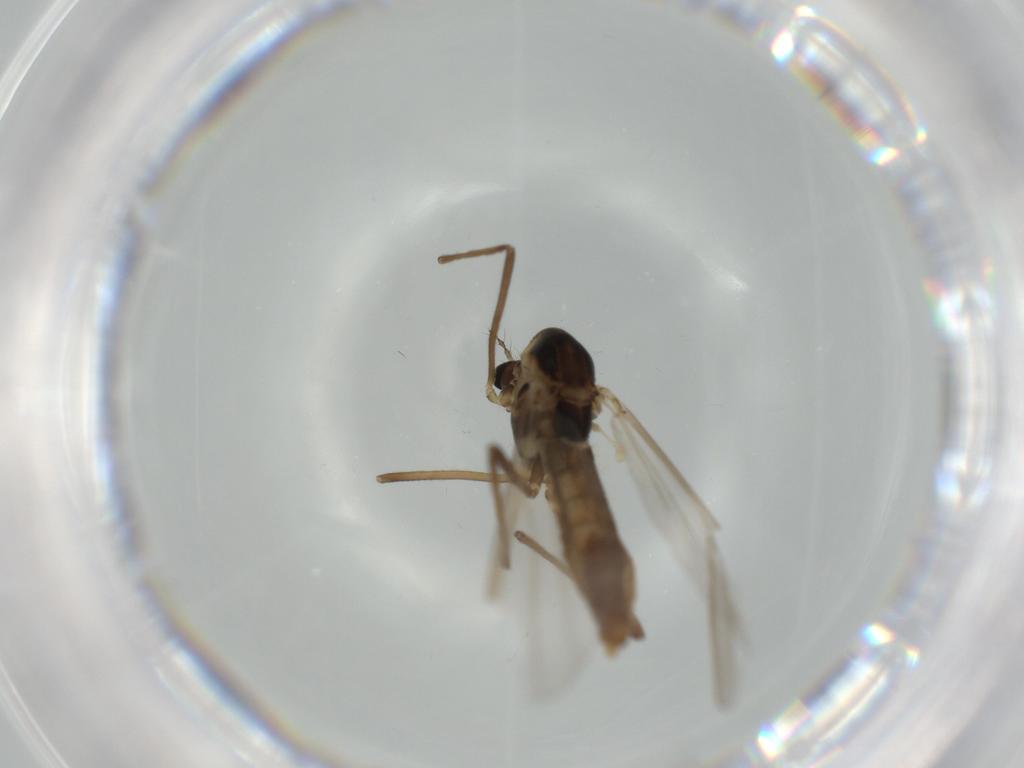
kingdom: Animalia
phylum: Arthropoda
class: Insecta
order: Diptera
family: Chironomidae
